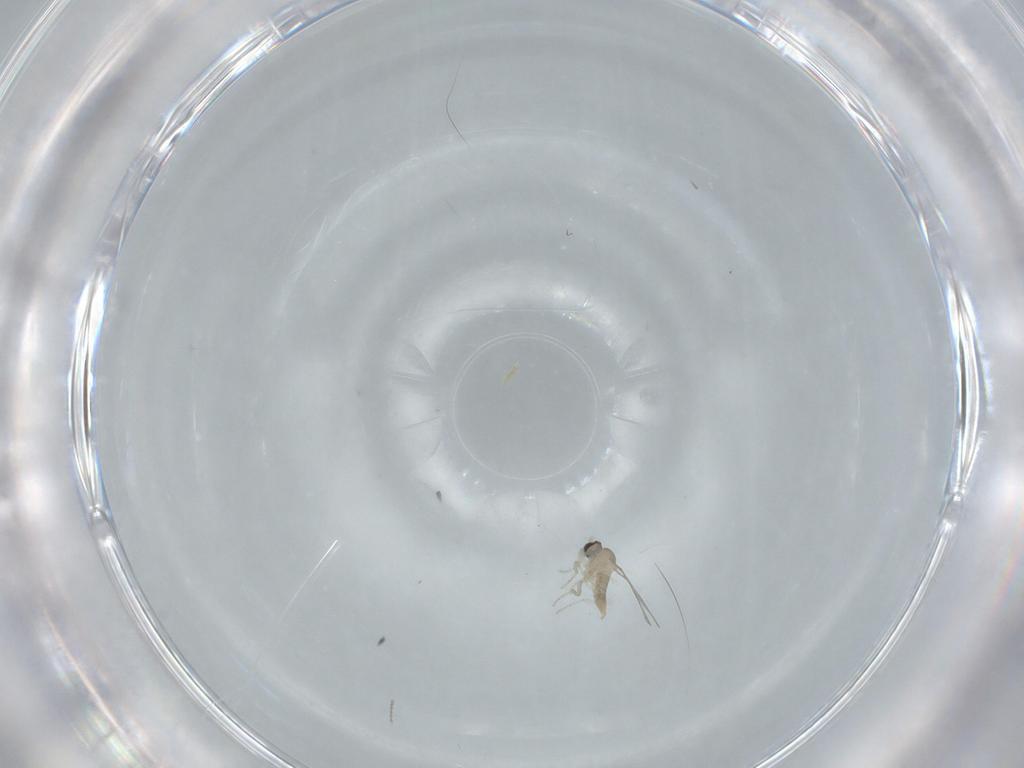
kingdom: Animalia
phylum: Arthropoda
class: Insecta
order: Diptera
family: Cecidomyiidae
